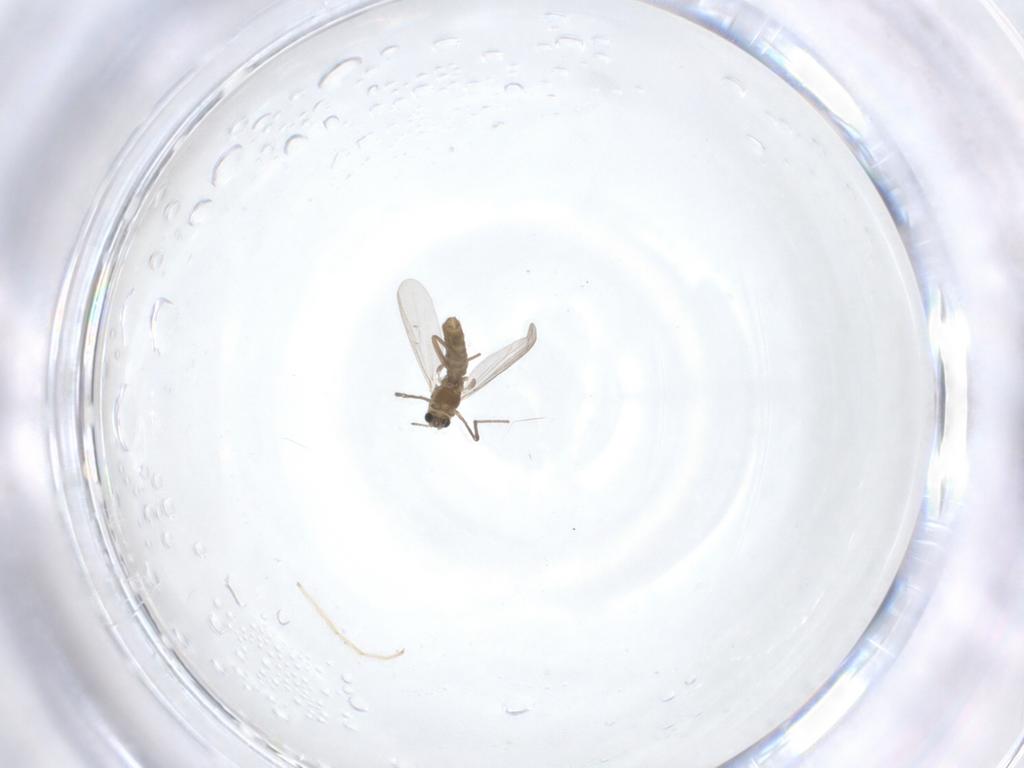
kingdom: Animalia
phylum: Arthropoda
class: Insecta
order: Diptera
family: Chironomidae
